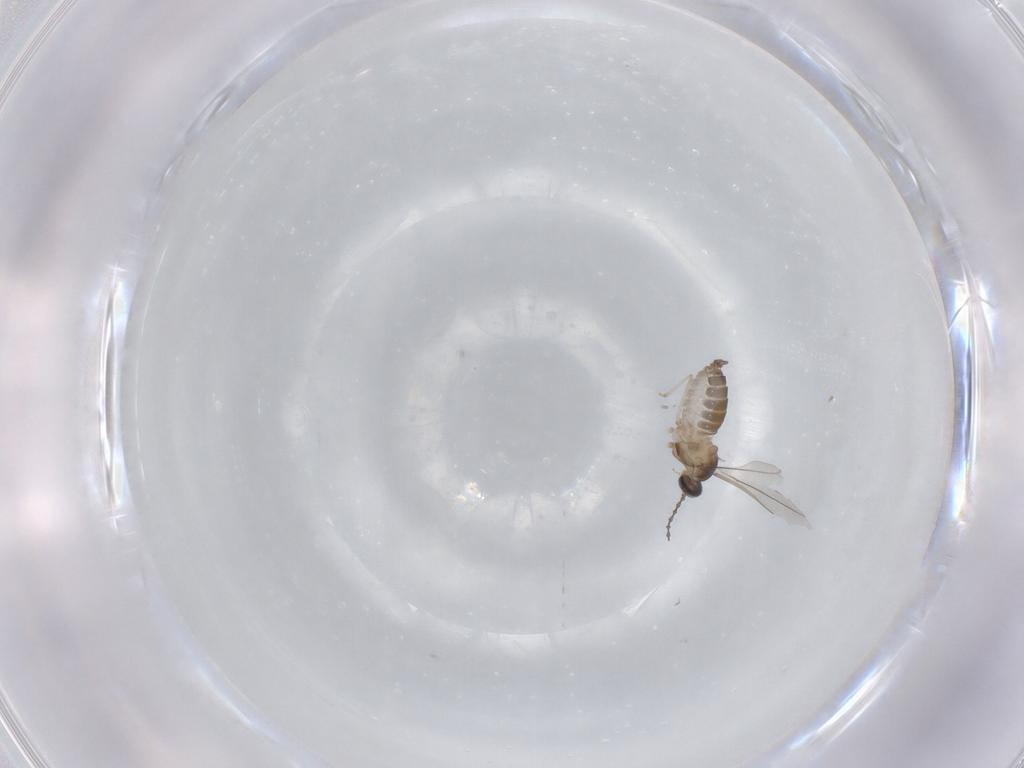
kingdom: Animalia
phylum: Arthropoda
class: Insecta
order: Diptera
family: Cecidomyiidae
